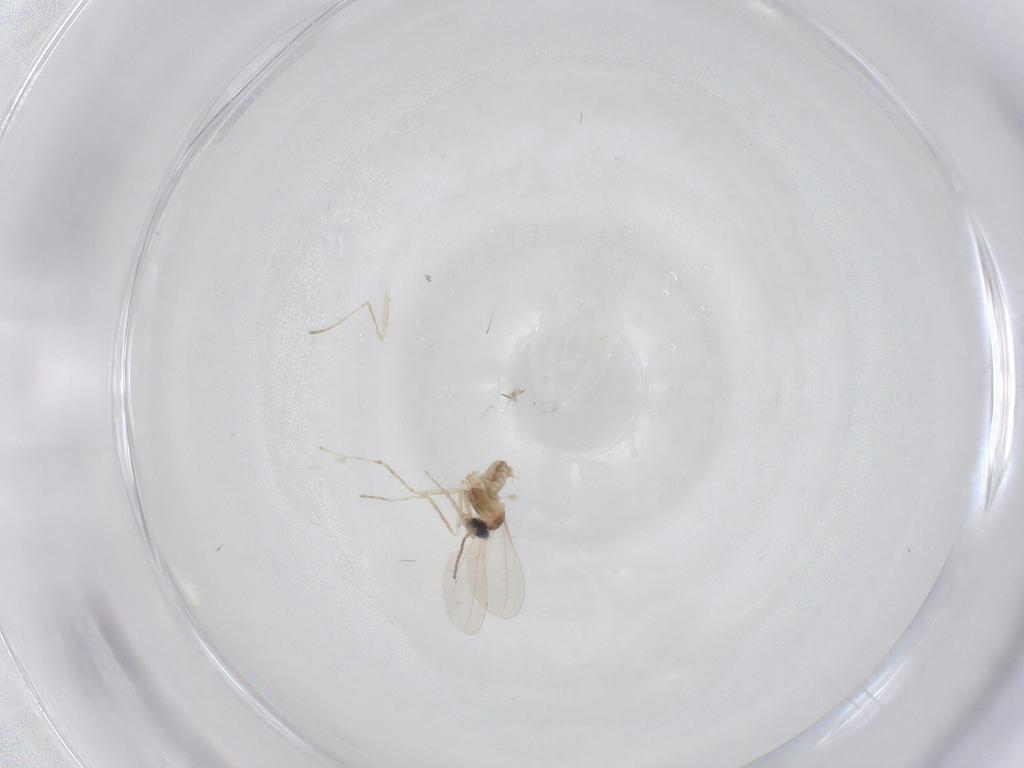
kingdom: Animalia
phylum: Arthropoda
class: Insecta
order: Diptera
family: Cecidomyiidae
